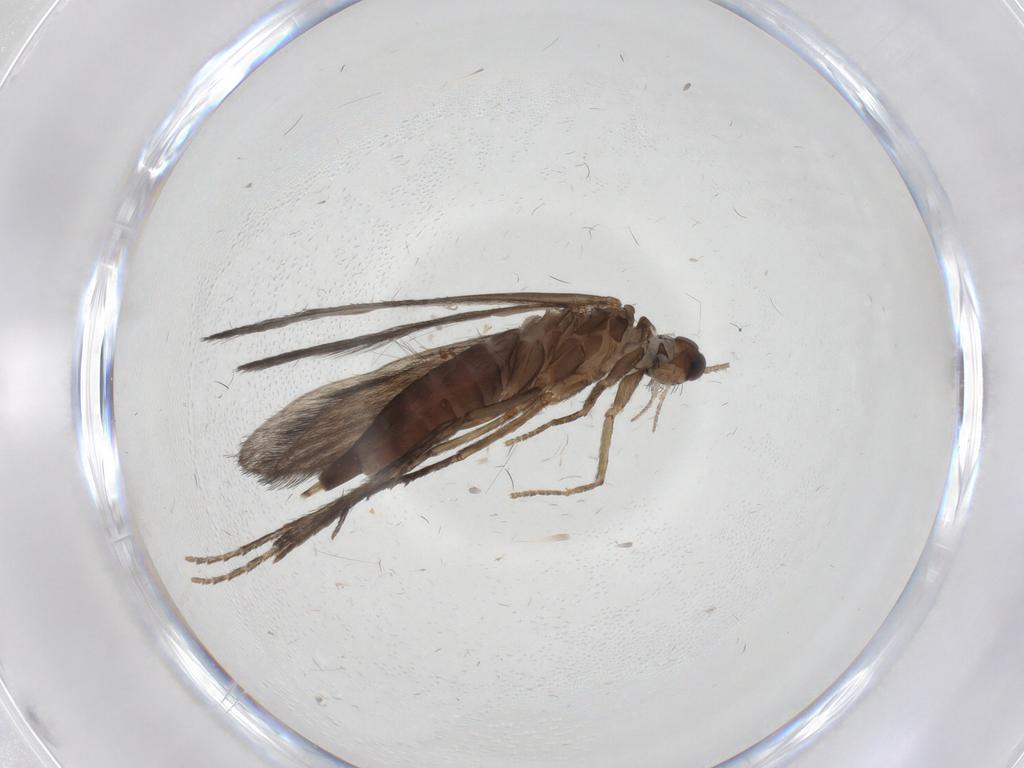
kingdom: Animalia
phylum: Arthropoda
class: Insecta
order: Trichoptera
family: Xiphocentronidae
